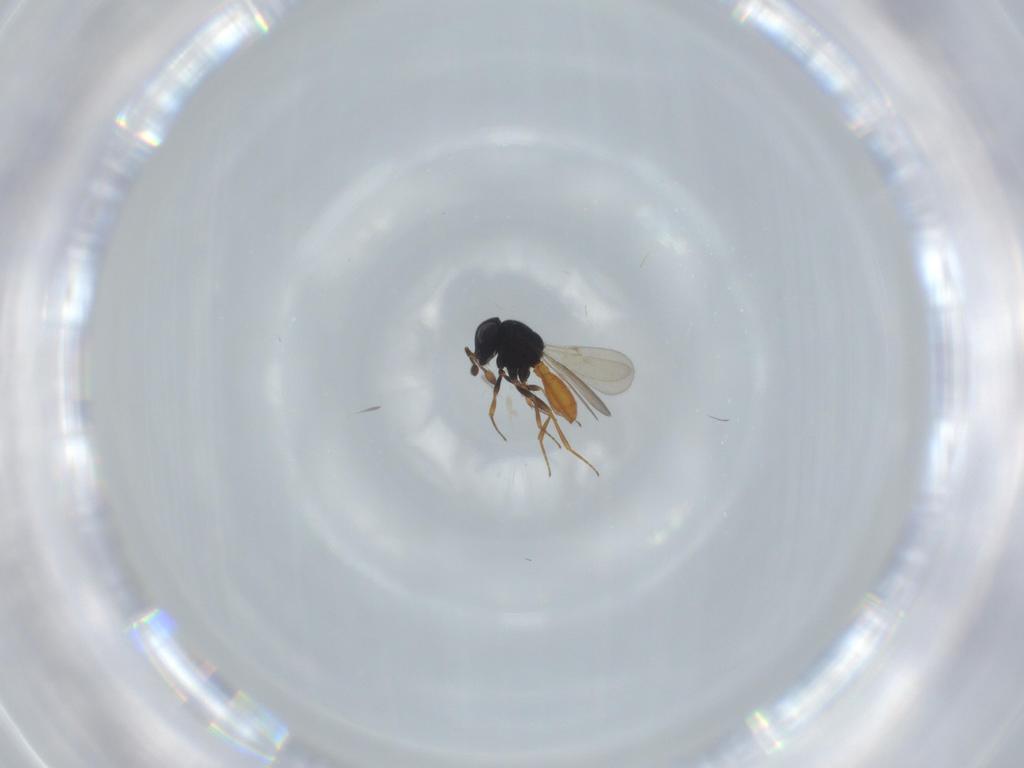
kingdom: Animalia
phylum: Arthropoda
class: Insecta
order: Hymenoptera
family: Scelionidae
